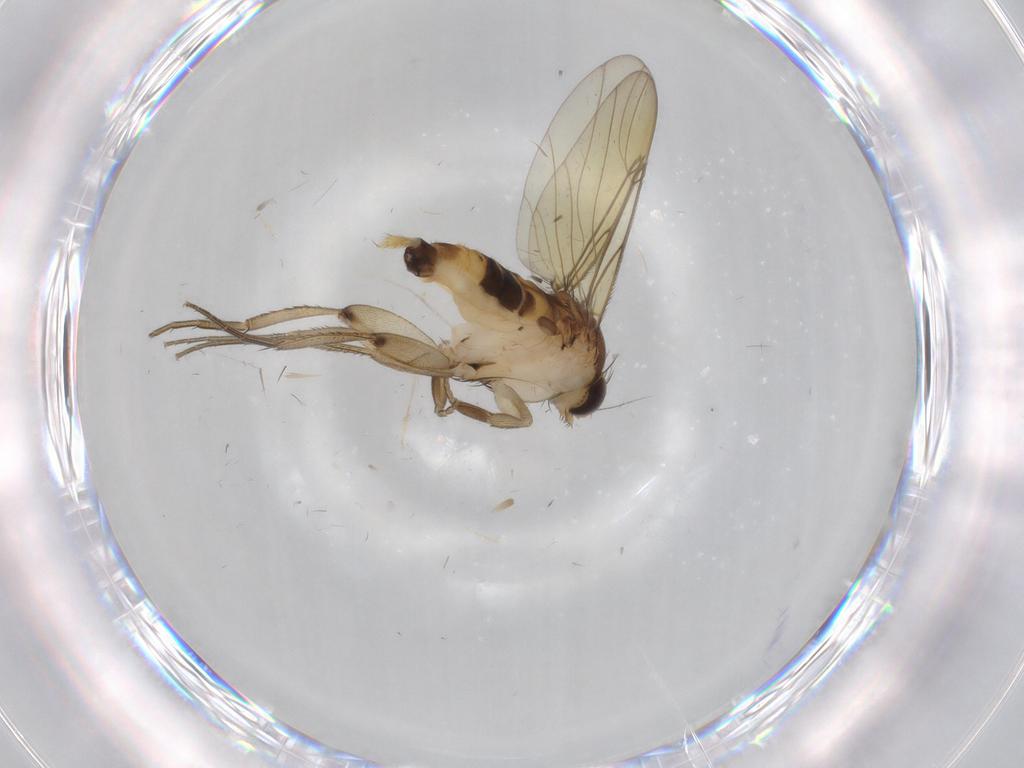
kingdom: Animalia
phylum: Arthropoda
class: Insecta
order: Diptera
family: Phoridae
